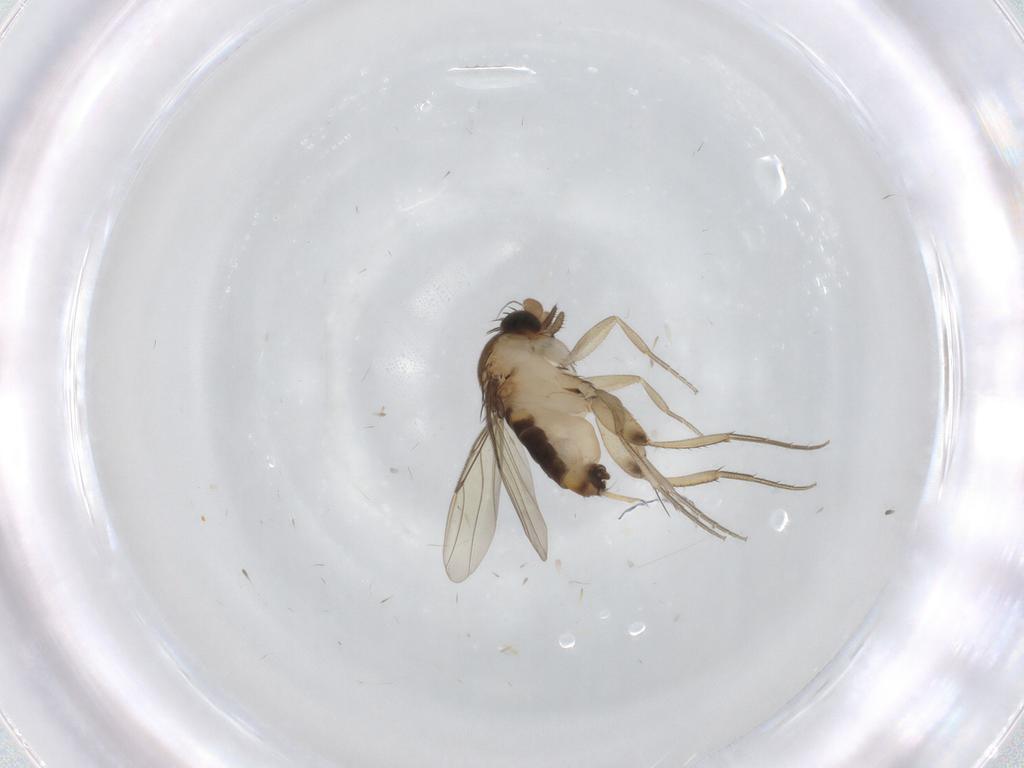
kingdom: Animalia
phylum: Arthropoda
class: Insecta
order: Diptera
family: Phoridae
